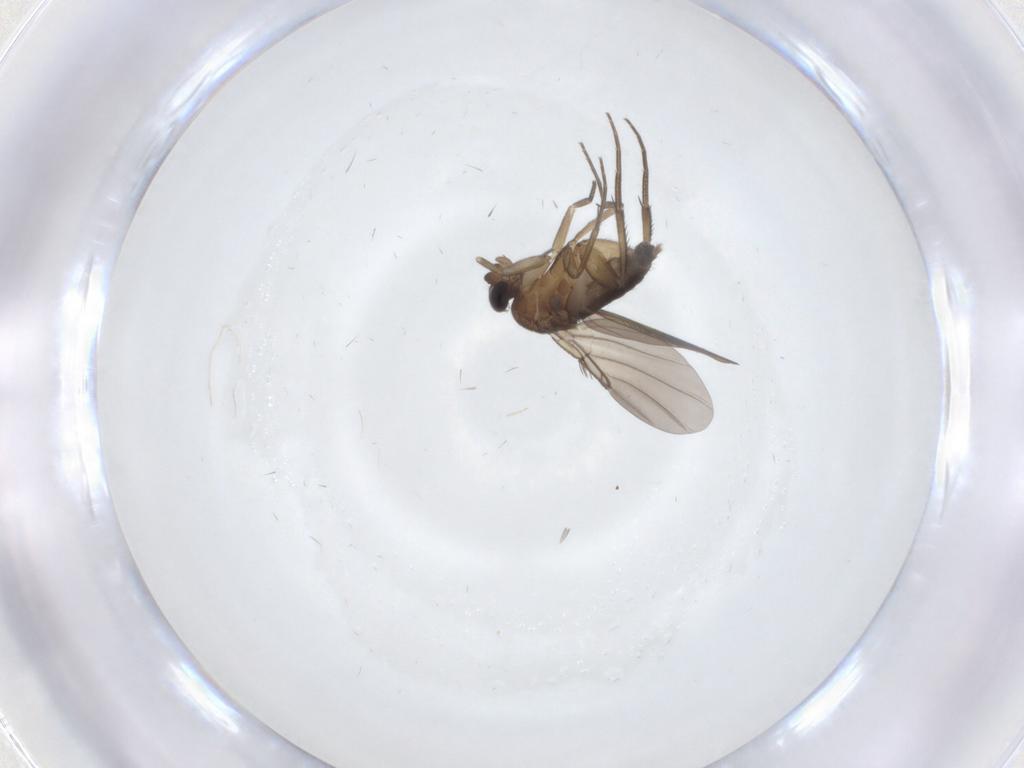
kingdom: Animalia
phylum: Arthropoda
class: Insecta
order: Diptera
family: Phoridae
